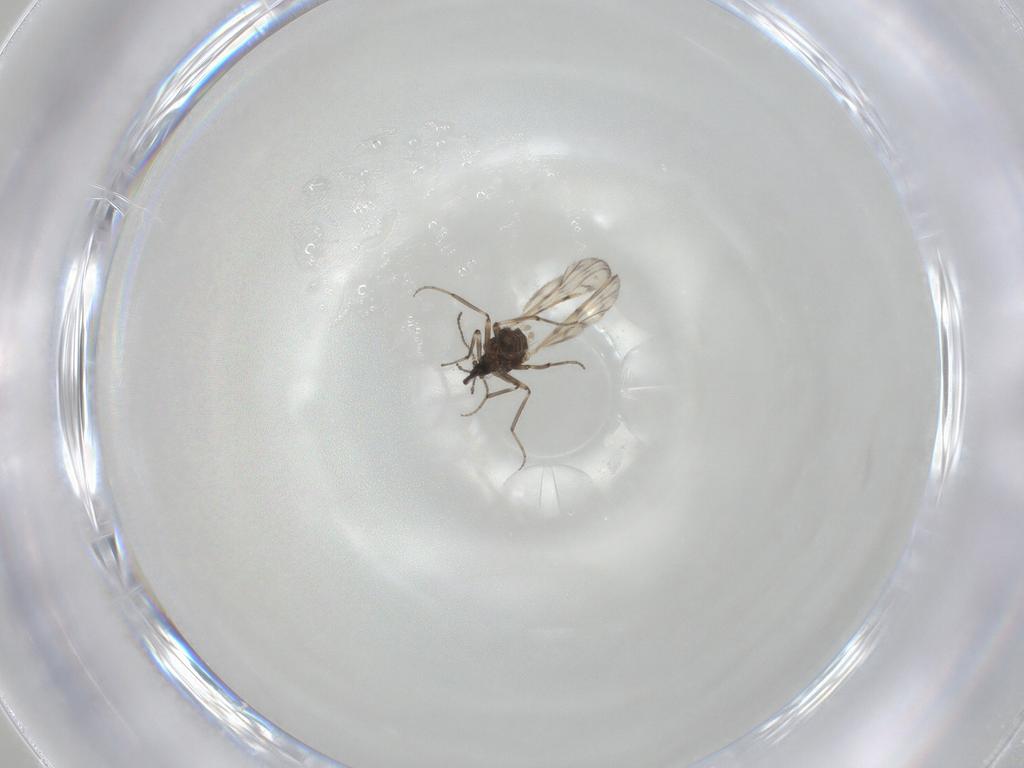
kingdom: Animalia
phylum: Arthropoda
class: Insecta
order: Diptera
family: Ceratopogonidae
